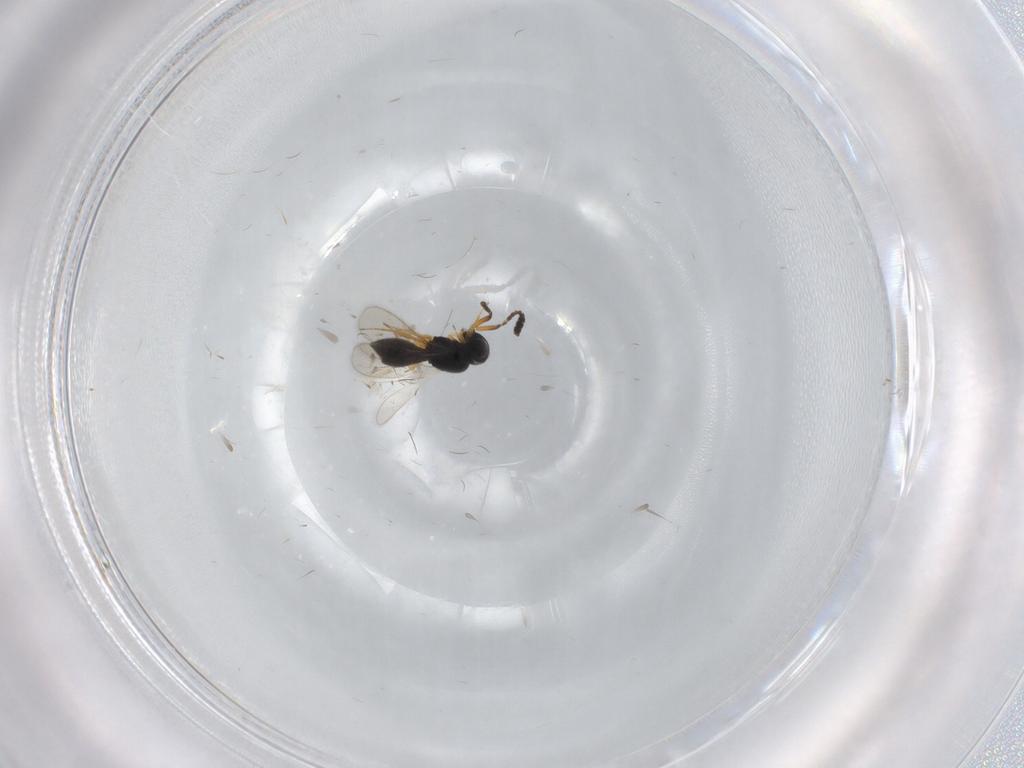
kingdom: Animalia
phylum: Arthropoda
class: Insecta
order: Hymenoptera
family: Scelionidae
